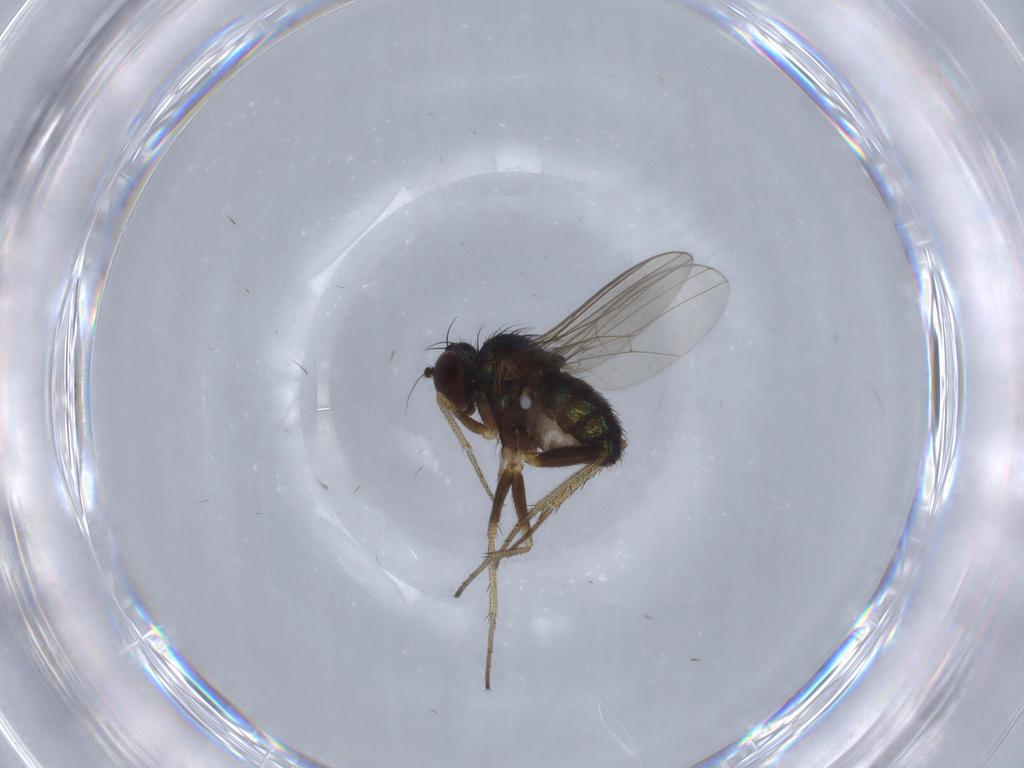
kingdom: Animalia
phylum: Arthropoda
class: Insecta
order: Diptera
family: Dolichopodidae
